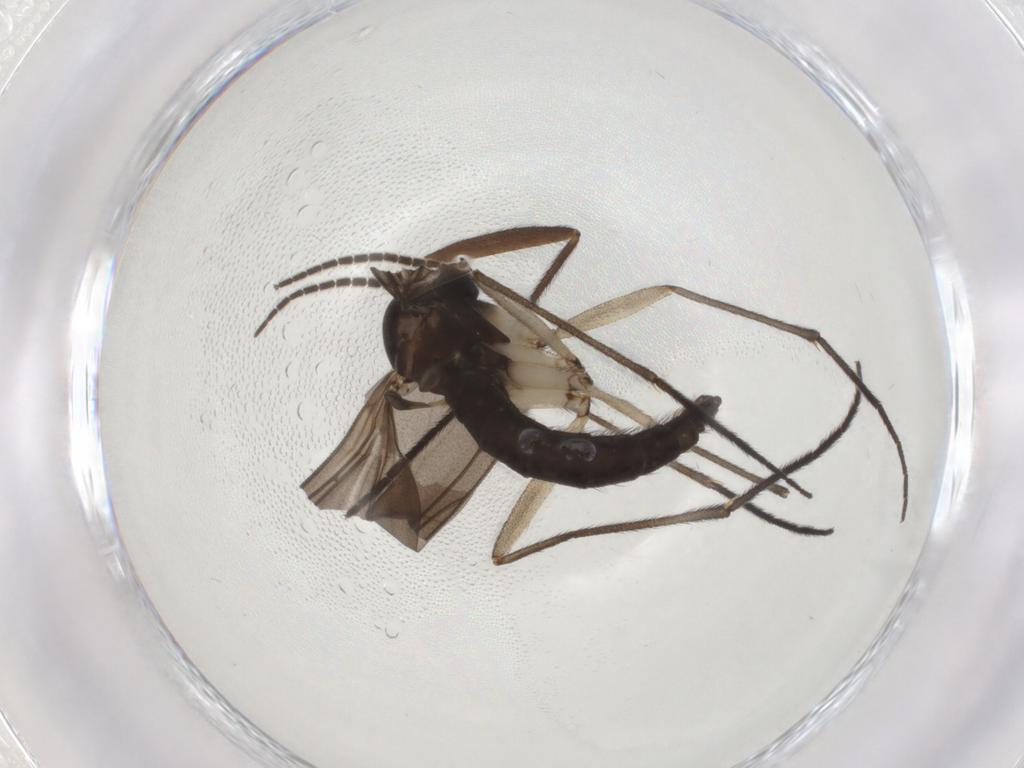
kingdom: Animalia
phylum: Arthropoda
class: Insecta
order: Diptera
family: Sciaridae
